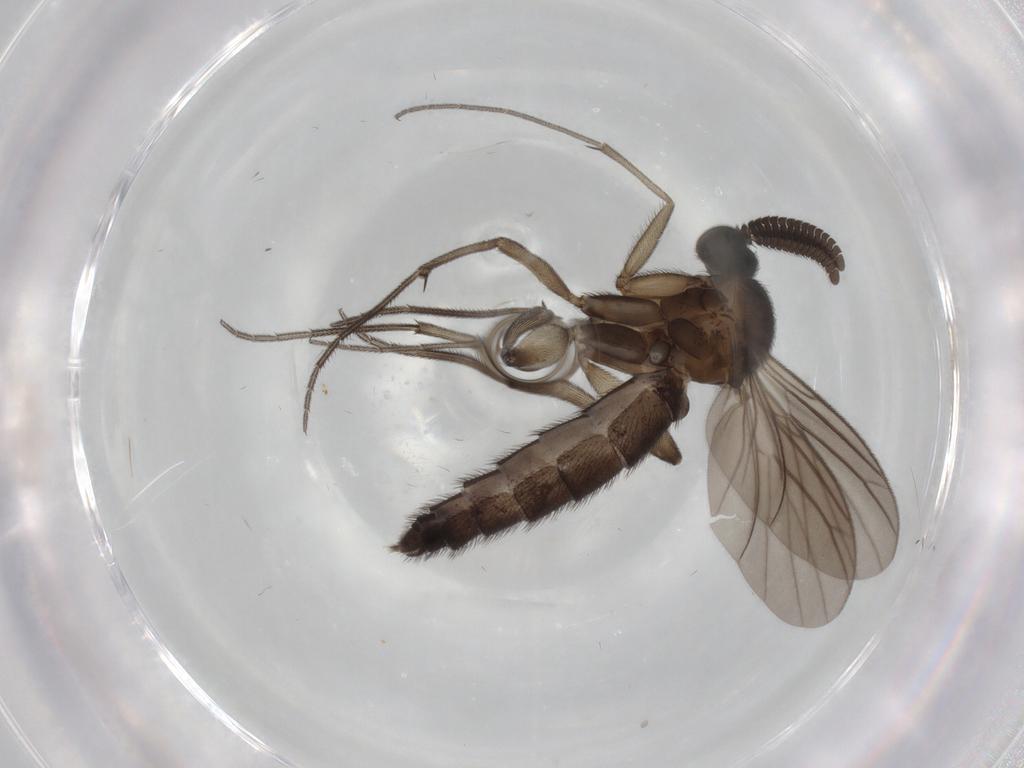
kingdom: Animalia
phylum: Arthropoda
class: Insecta
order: Diptera
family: Keroplatidae
